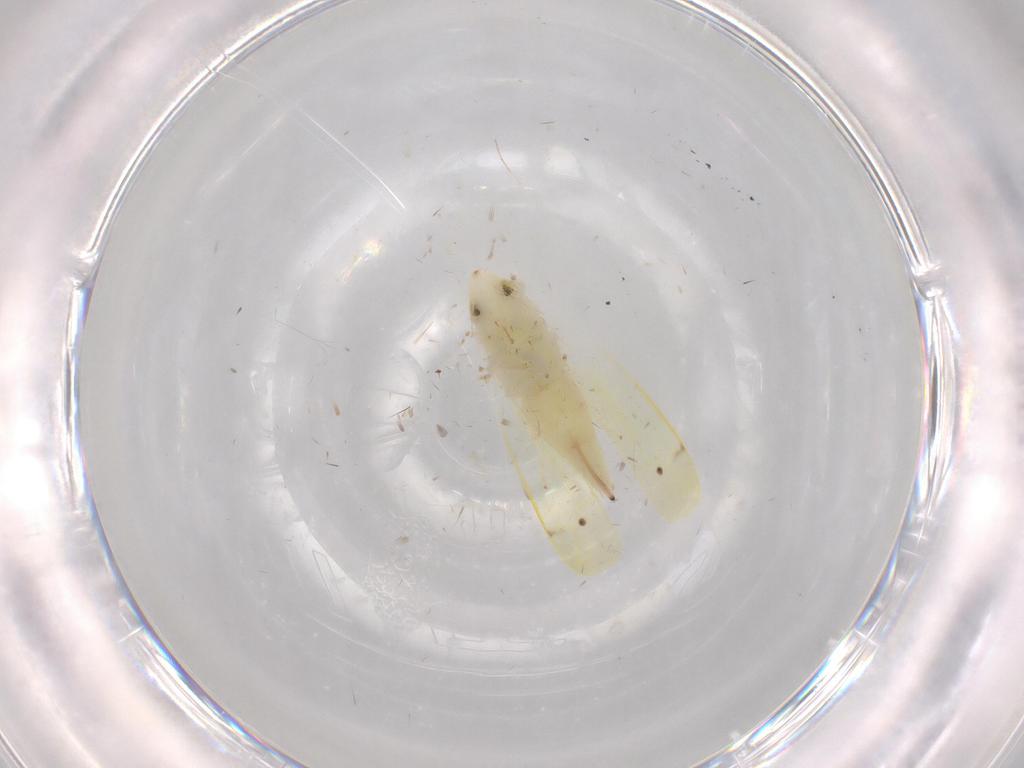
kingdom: Animalia
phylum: Arthropoda
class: Insecta
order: Hemiptera
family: Cicadellidae
